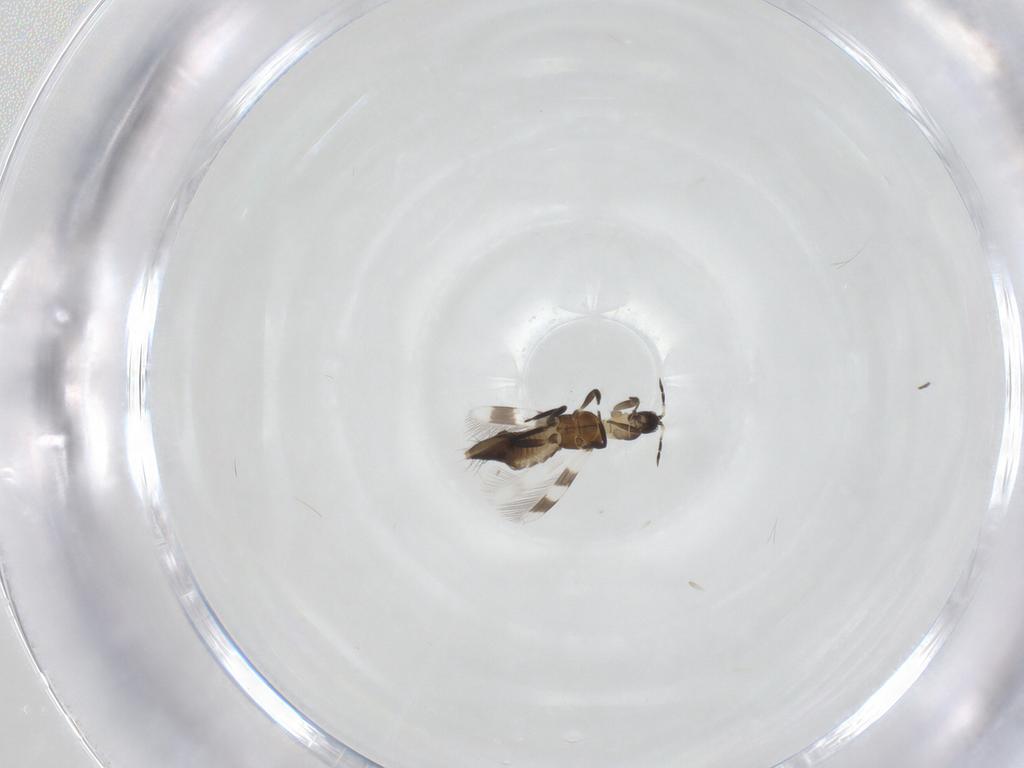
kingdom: Animalia
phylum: Arthropoda
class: Insecta
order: Thysanoptera
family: Aeolothripidae
